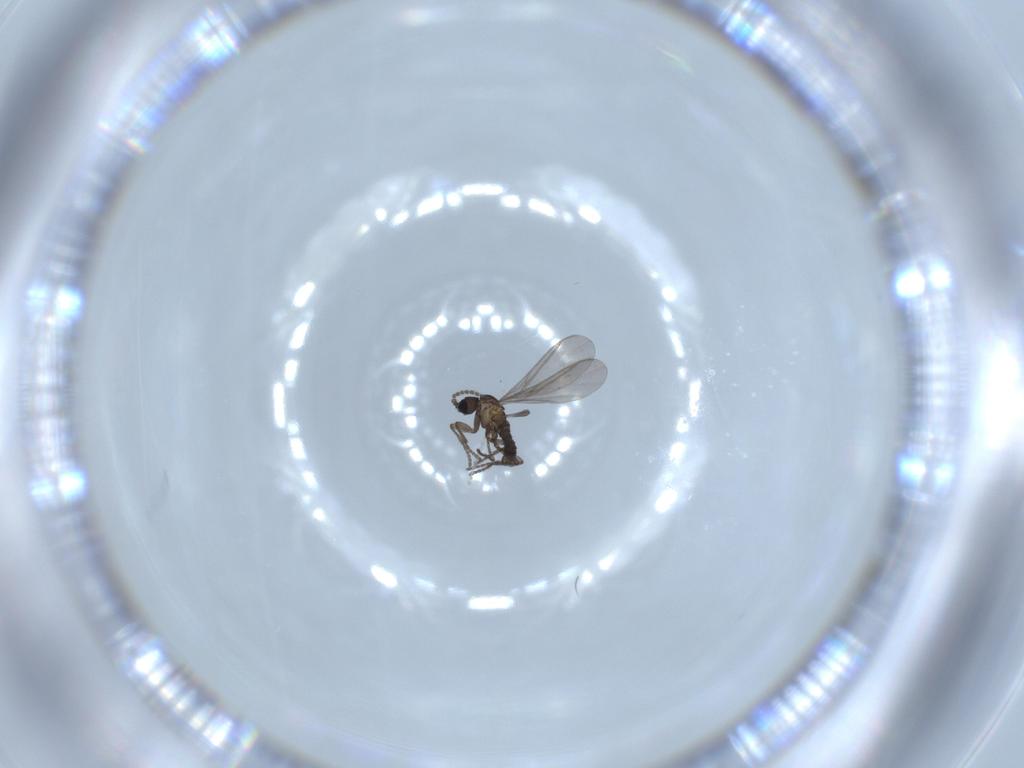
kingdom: Animalia
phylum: Arthropoda
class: Insecta
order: Diptera
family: Cecidomyiidae
